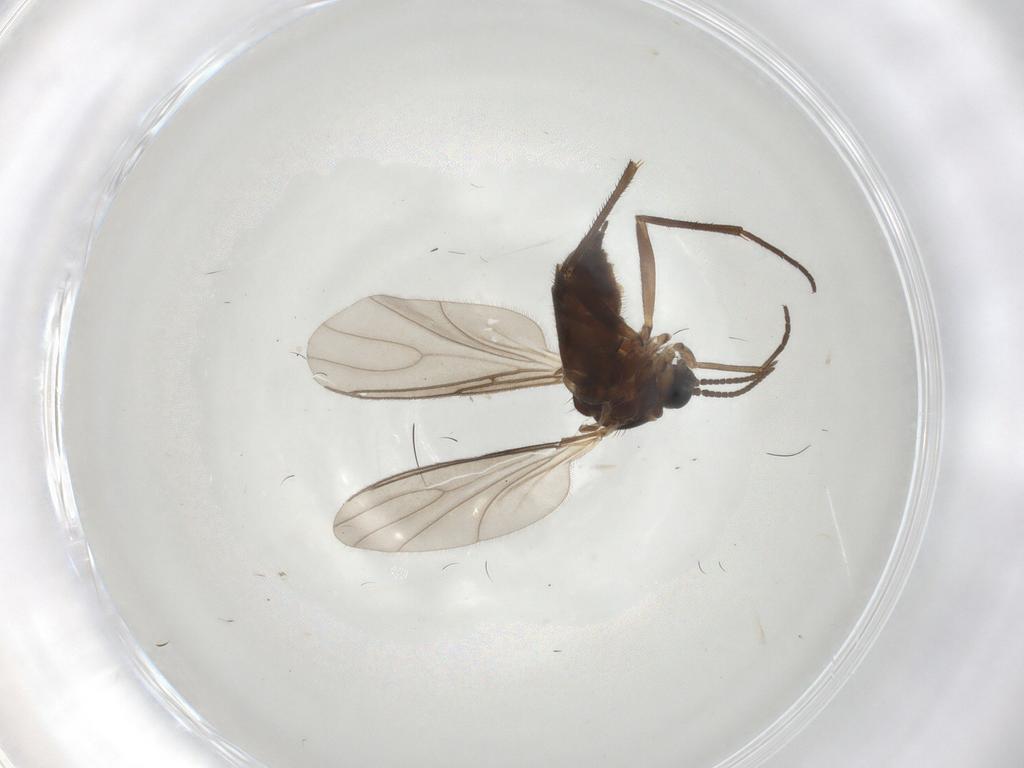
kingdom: Animalia
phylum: Arthropoda
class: Insecta
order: Diptera
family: Sciaridae
